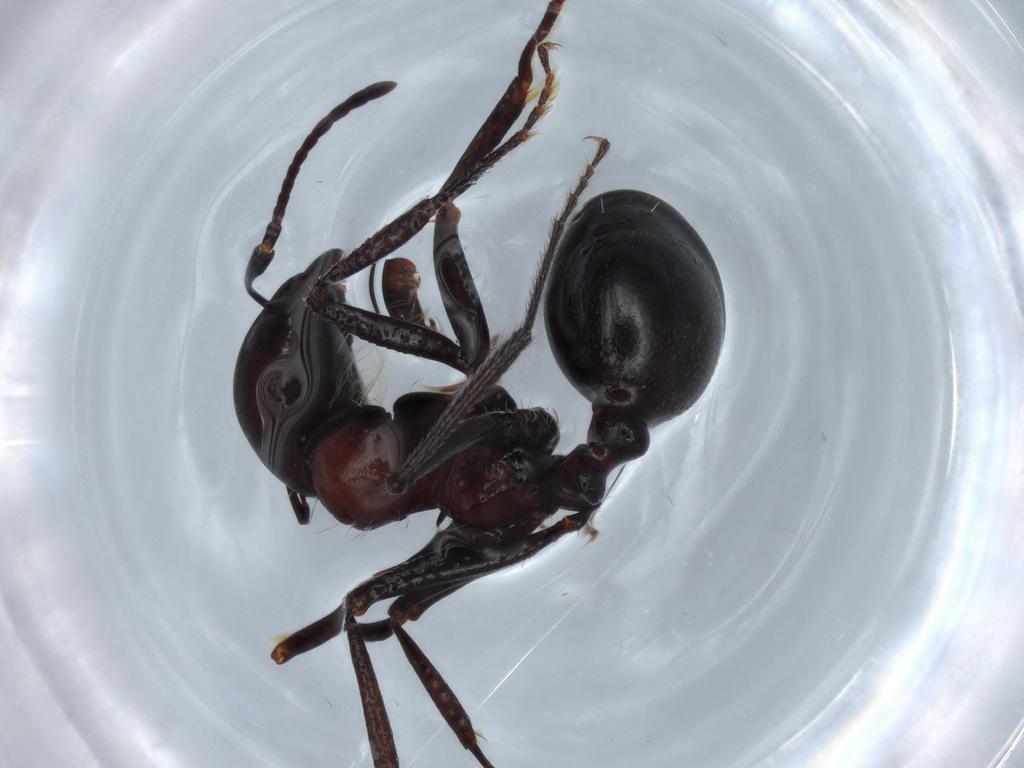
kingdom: Animalia
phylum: Arthropoda
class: Insecta
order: Hymenoptera
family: Formicidae
